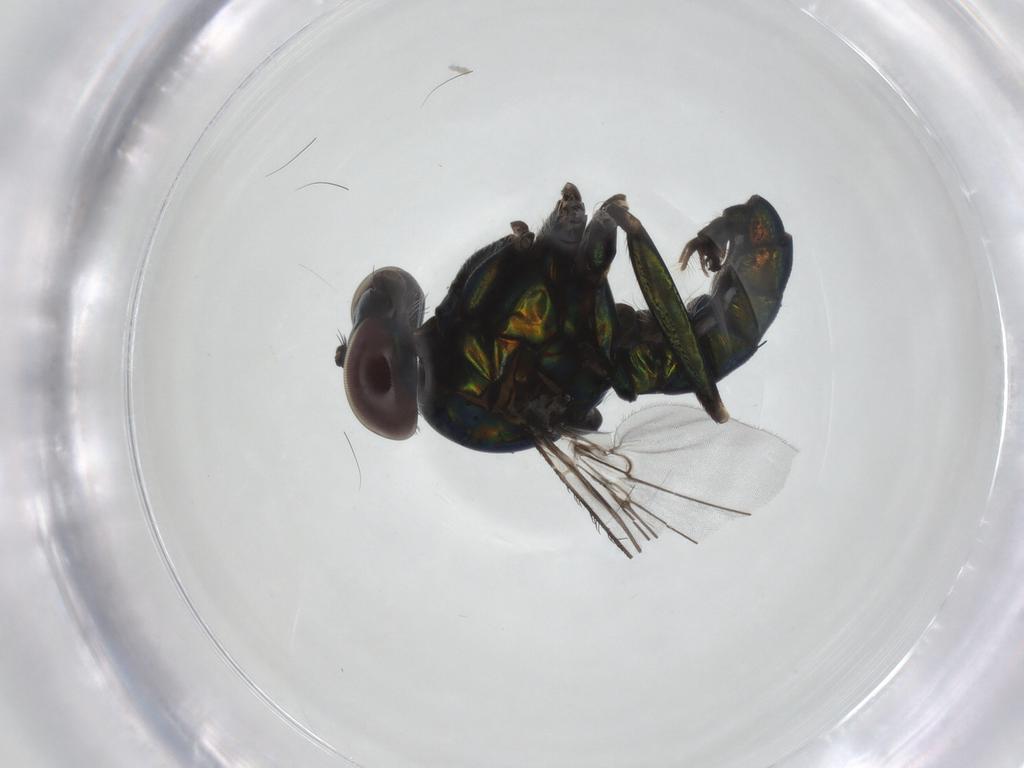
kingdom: Animalia
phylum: Arthropoda
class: Insecta
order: Diptera
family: Dolichopodidae
